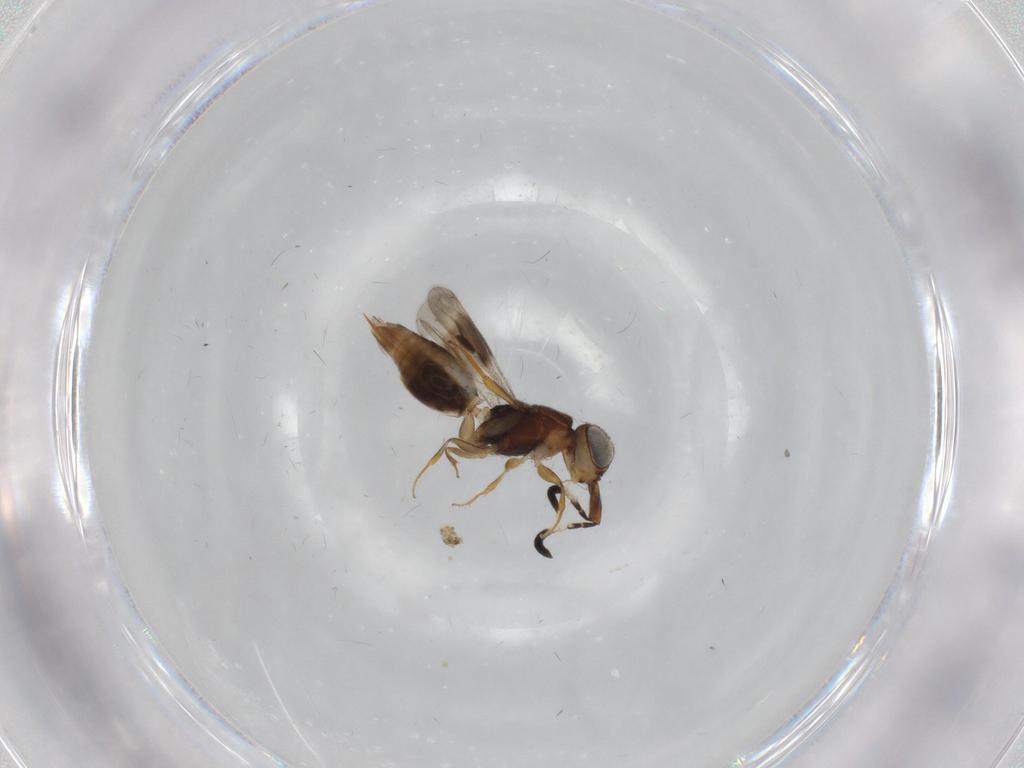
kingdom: Animalia
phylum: Arthropoda
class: Insecta
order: Hymenoptera
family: Megaspilidae
